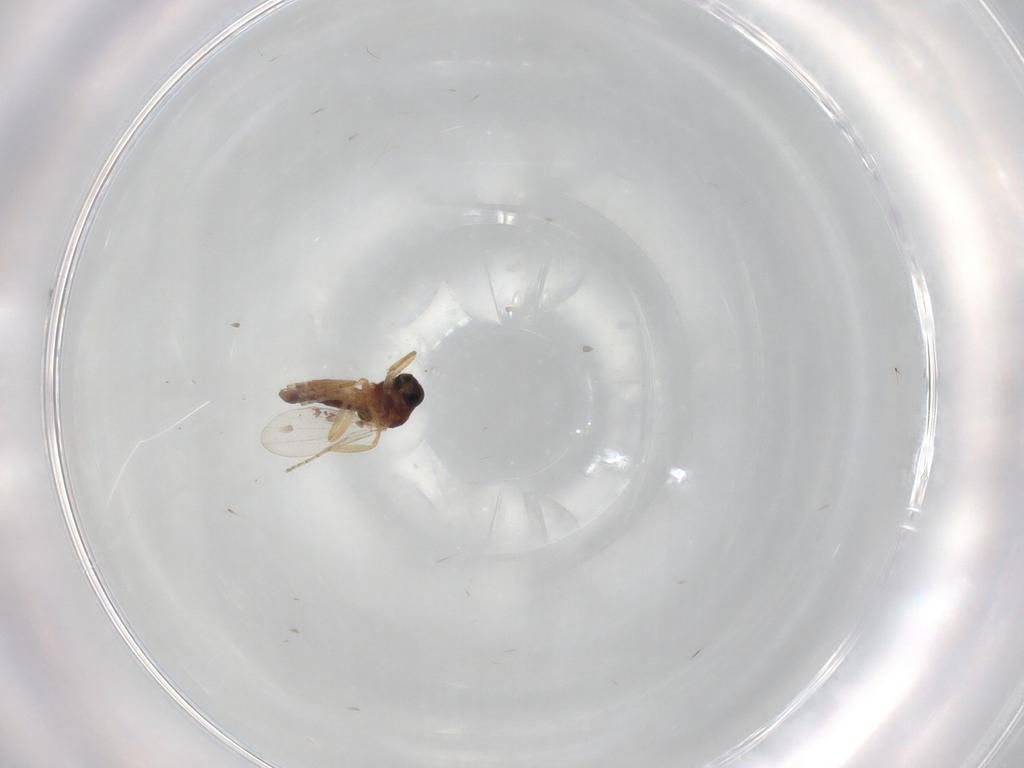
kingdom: Animalia
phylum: Arthropoda
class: Insecta
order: Diptera
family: Ceratopogonidae
